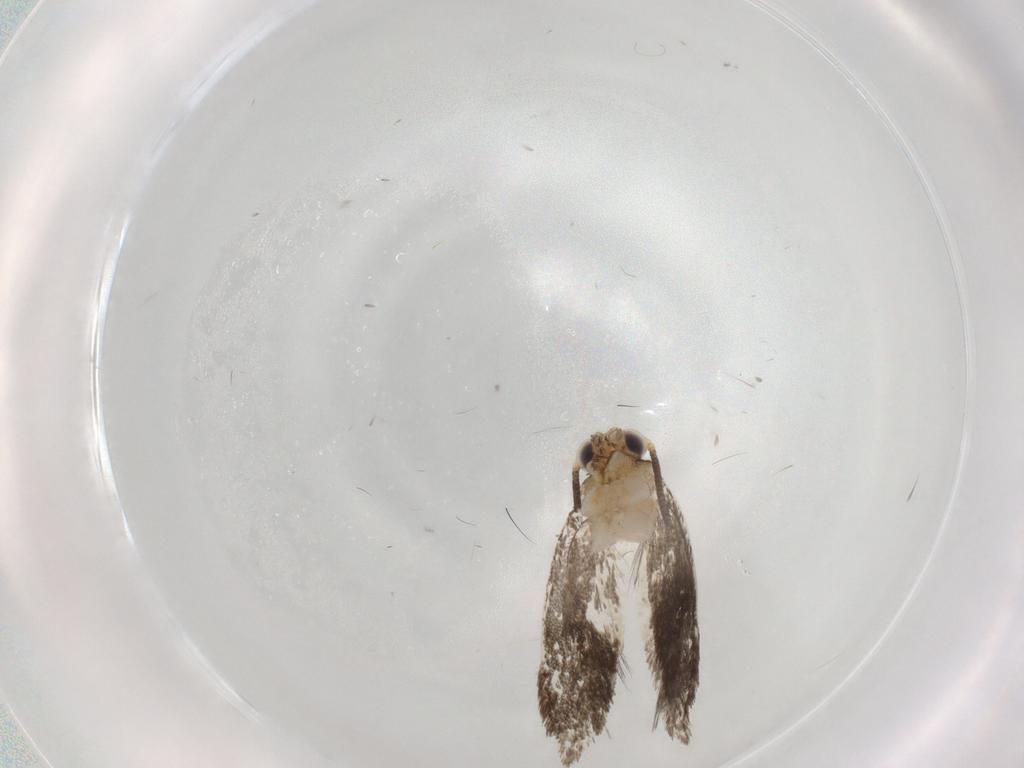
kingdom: Animalia
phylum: Arthropoda
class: Insecta
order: Lepidoptera
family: Tineidae
